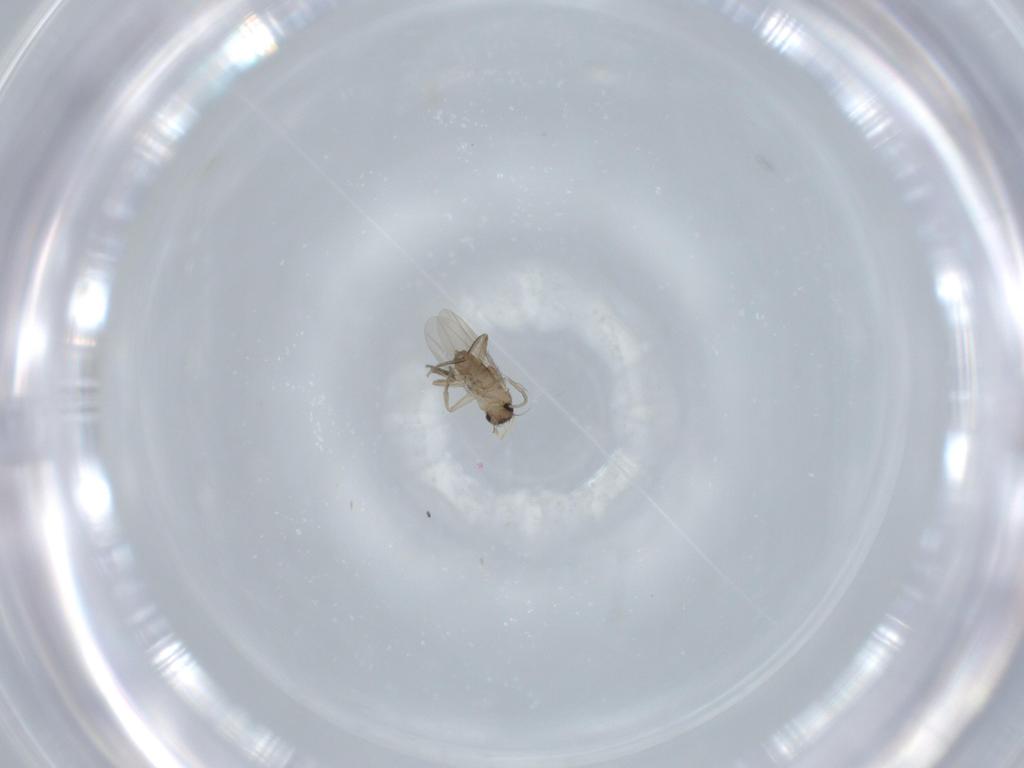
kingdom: Animalia
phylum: Arthropoda
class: Insecta
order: Diptera
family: Phoridae
